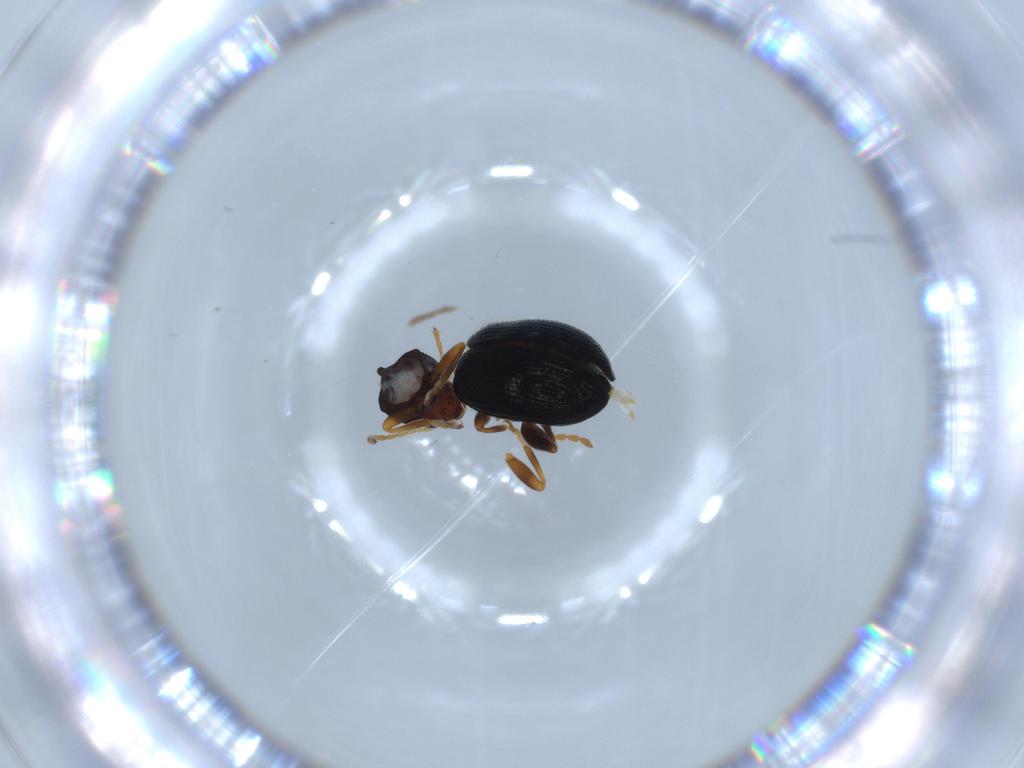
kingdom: Animalia
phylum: Arthropoda
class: Insecta
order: Coleoptera
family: Chrysomelidae
